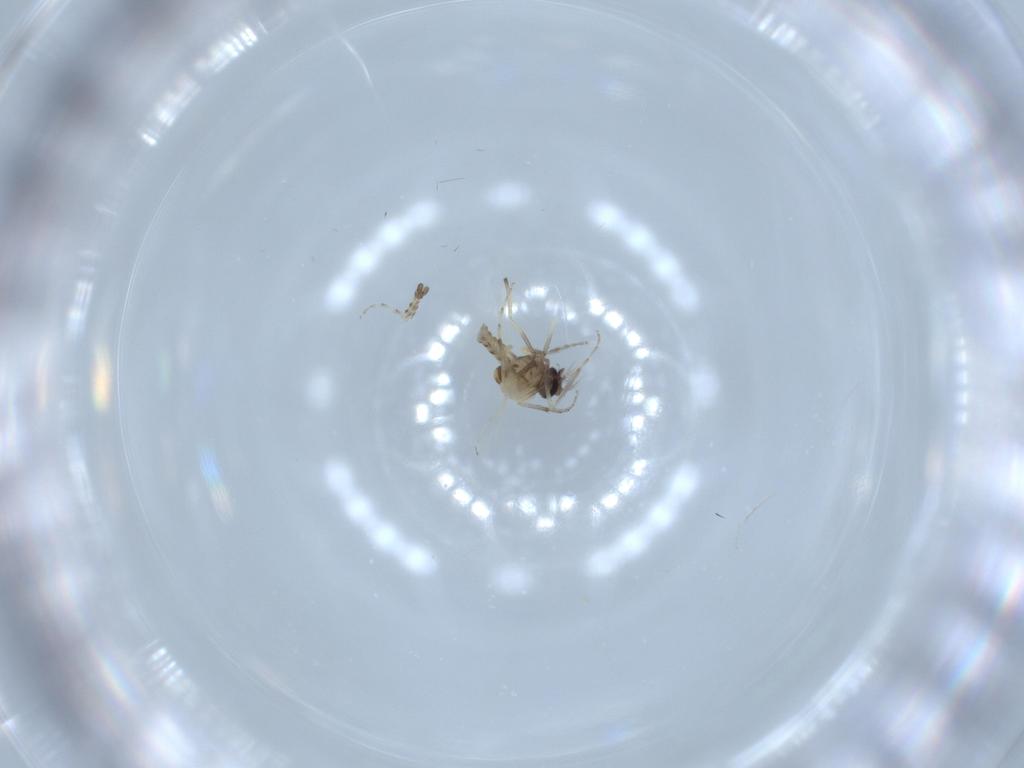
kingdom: Animalia
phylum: Arthropoda
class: Insecta
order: Diptera
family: Ceratopogonidae
